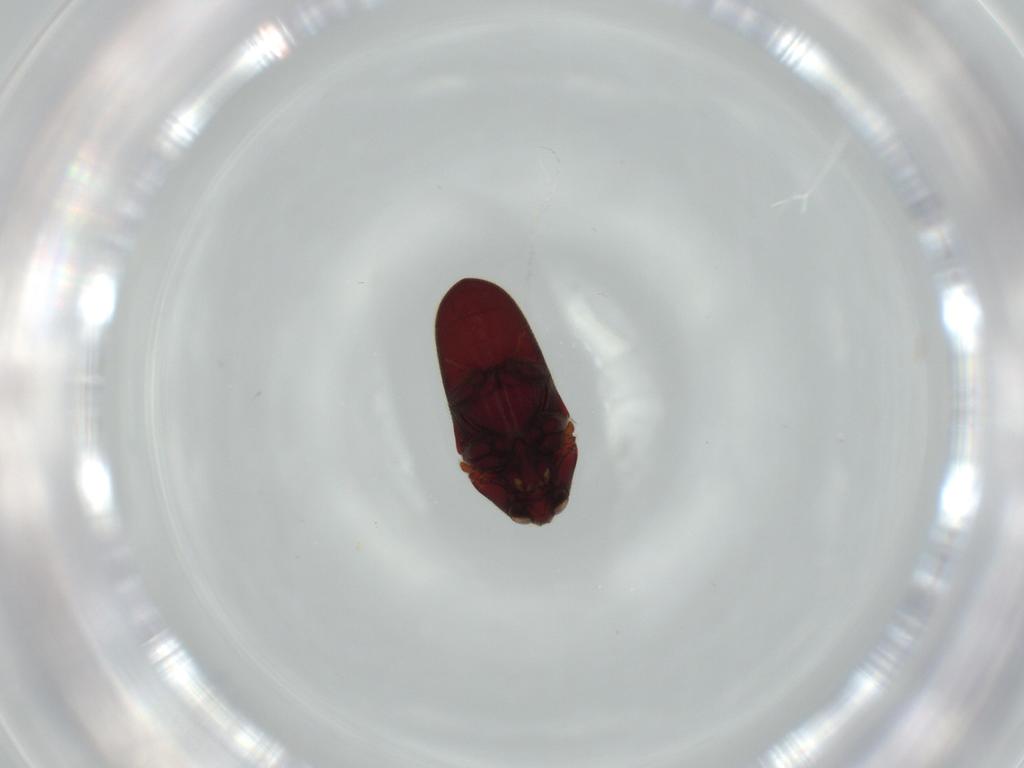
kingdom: Animalia
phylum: Arthropoda
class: Insecta
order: Coleoptera
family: Throscidae
